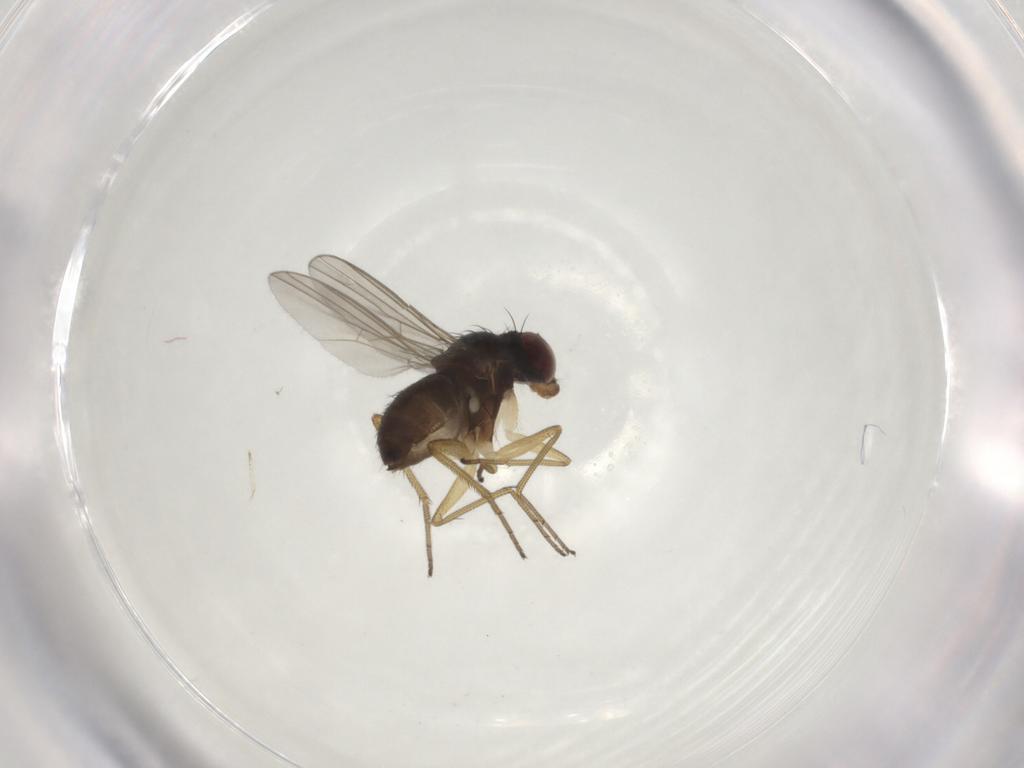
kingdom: Animalia
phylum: Arthropoda
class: Insecta
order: Diptera
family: Dolichopodidae
